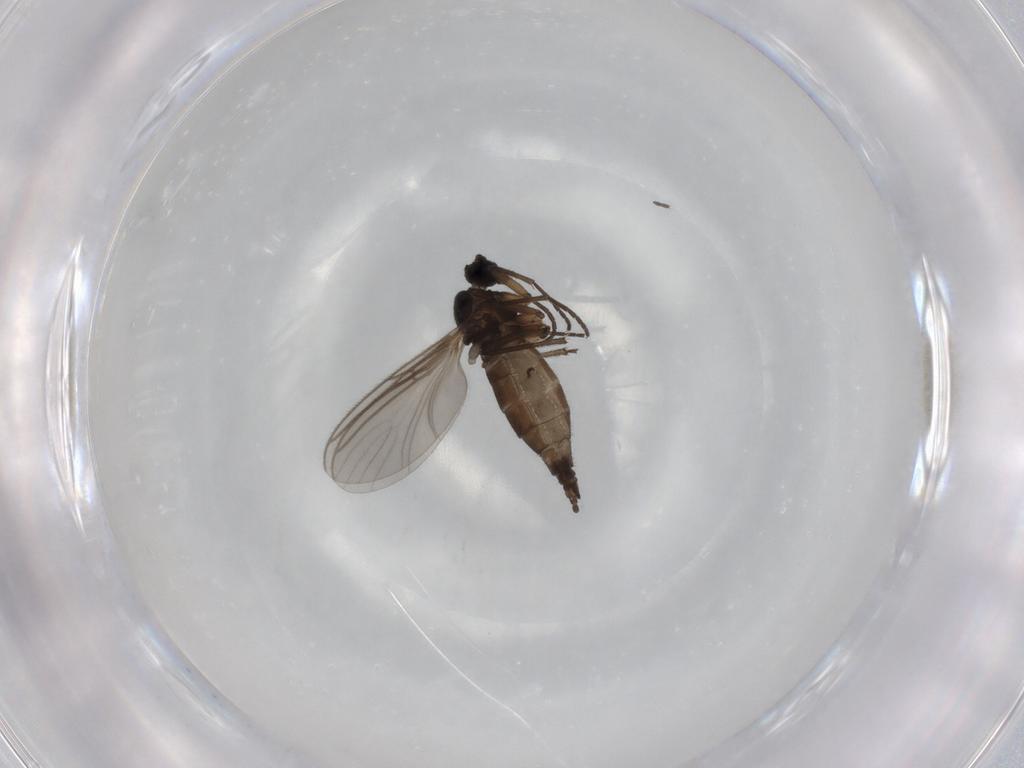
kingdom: Animalia
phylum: Arthropoda
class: Insecta
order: Diptera
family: Sciaridae
